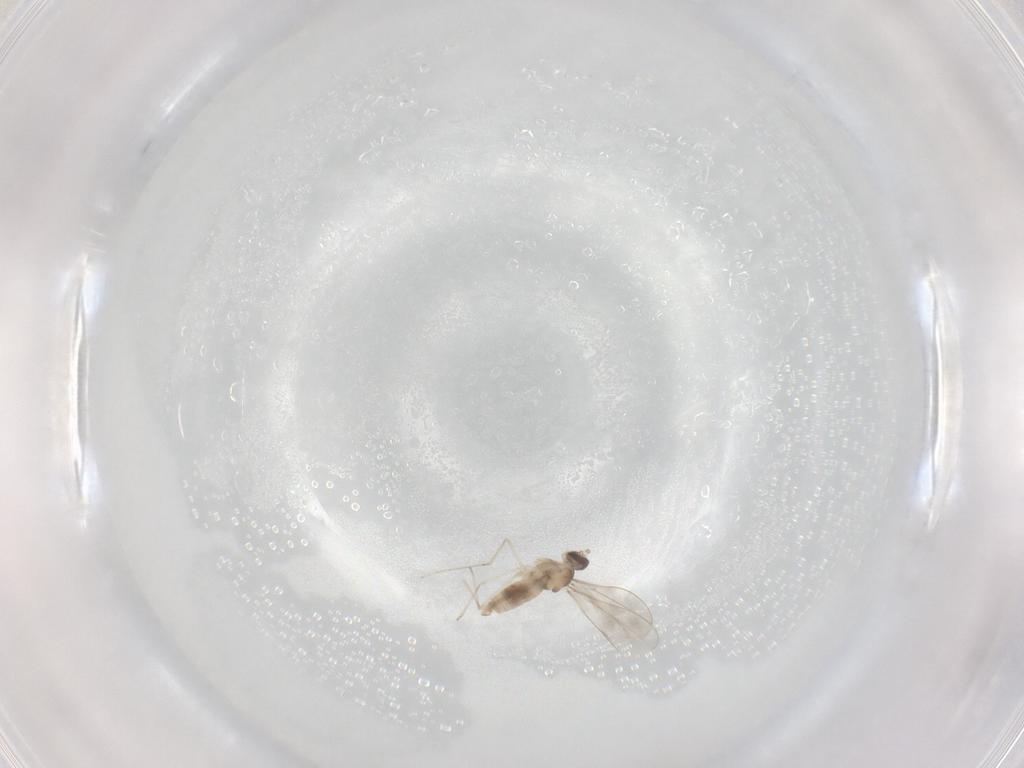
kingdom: Animalia
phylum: Arthropoda
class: Insecta
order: Diptera
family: Cecidomyiidae
